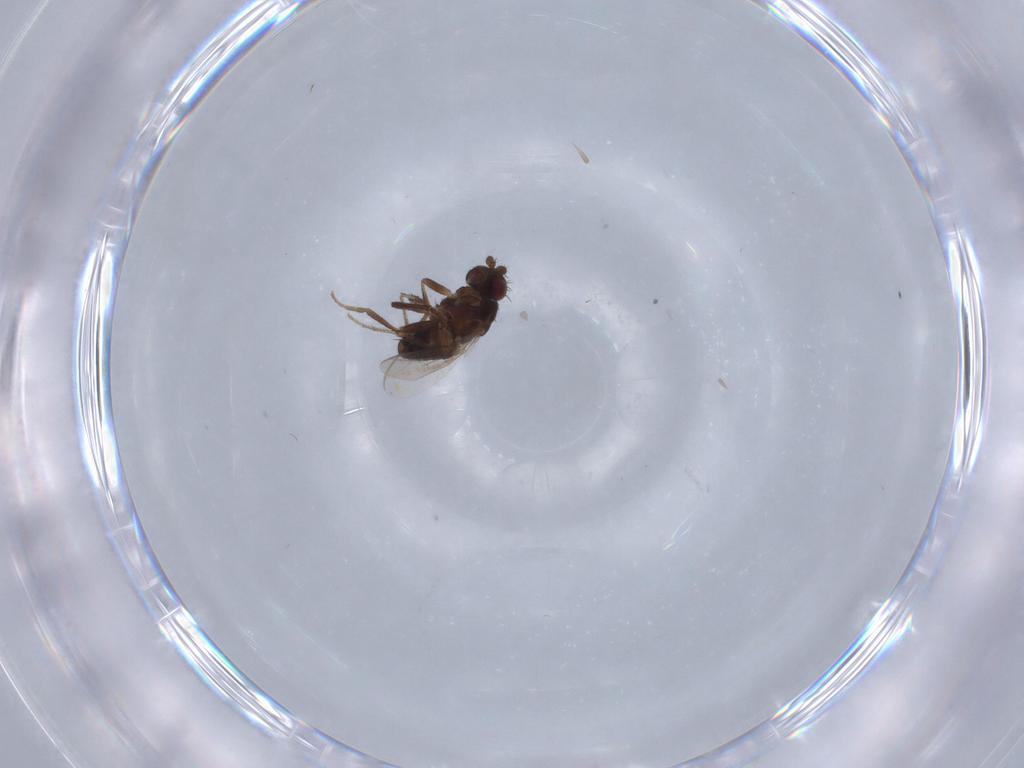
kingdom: Animalia
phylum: Arthropoda
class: Insecta
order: Diptera
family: Sphaeroceridae
